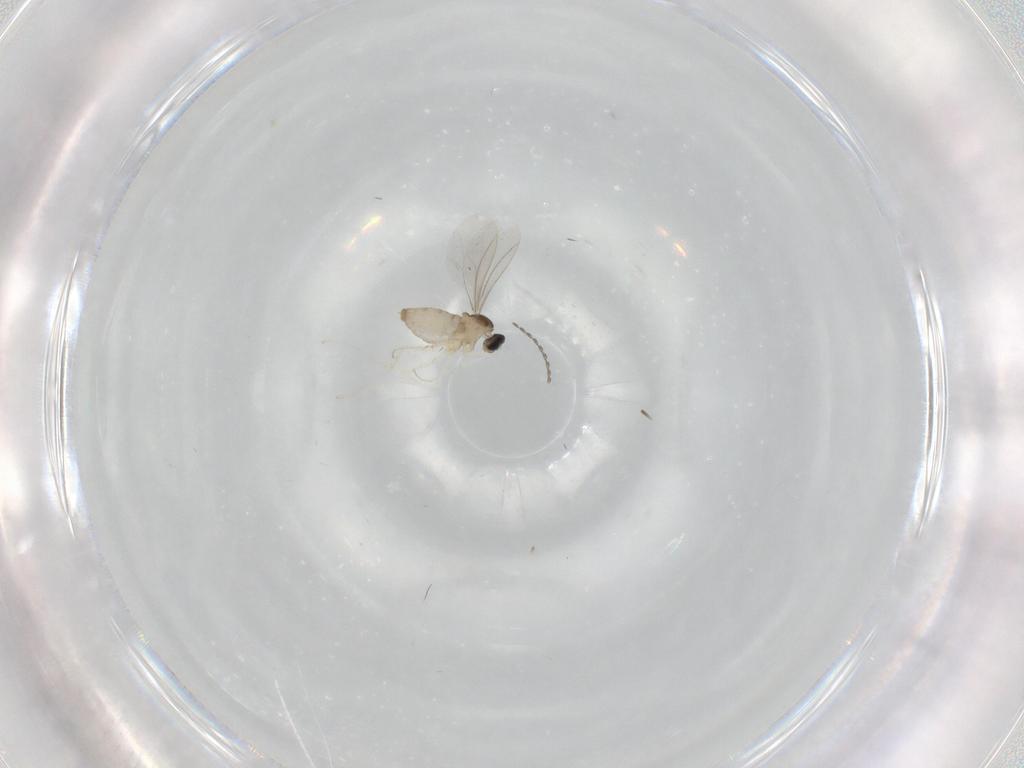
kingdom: Animalia
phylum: Arthropoda
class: Insecta
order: Diptera
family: Cecidomyiidae
